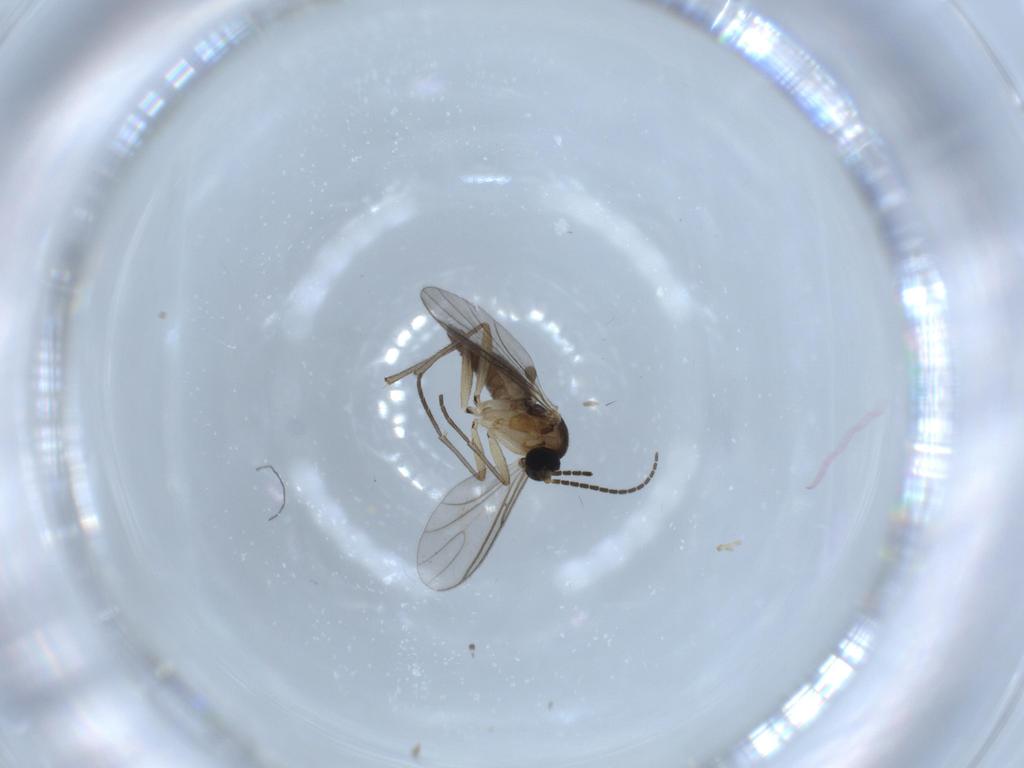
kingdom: Animalia
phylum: Arthropoda
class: Insecta
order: Diptera
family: Sciaridae
